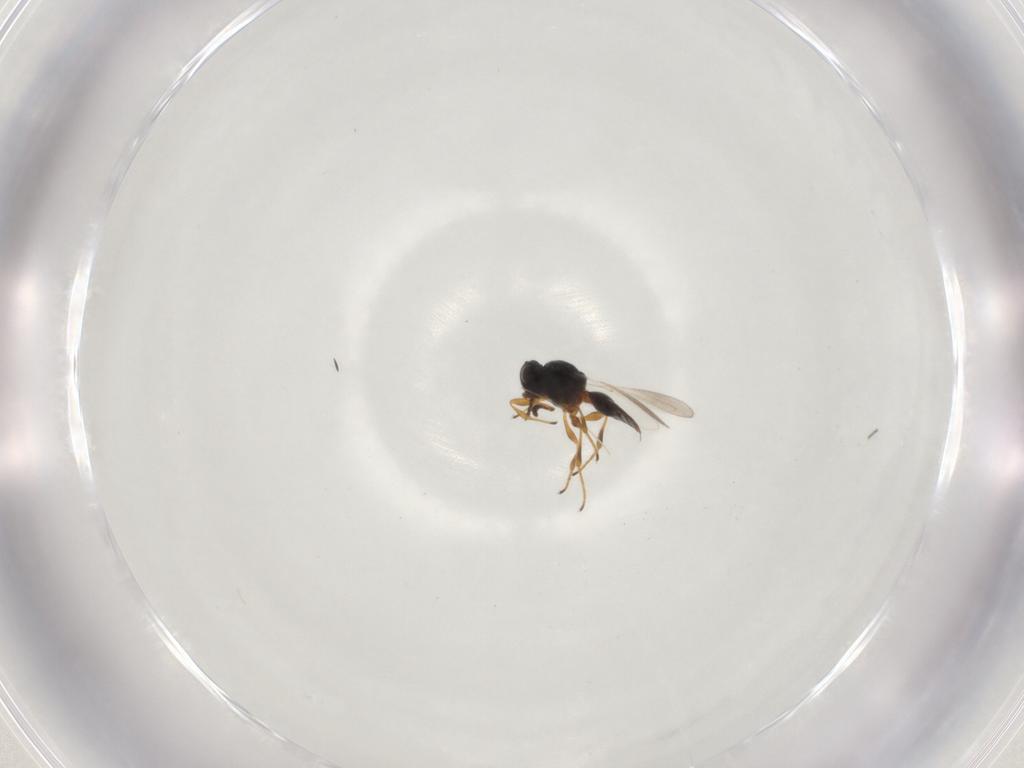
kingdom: Animalia
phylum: Arthropoda
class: Insecta
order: Hymenoptera
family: Platygastridae
